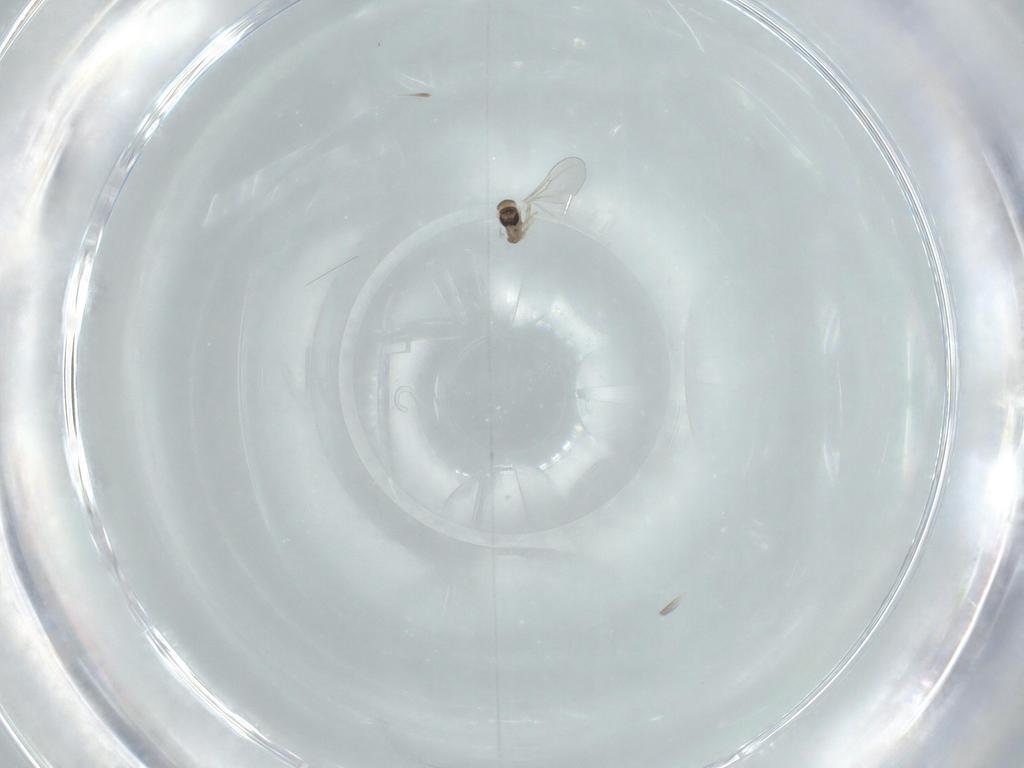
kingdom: Animalia
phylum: Arthropoda
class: Insecta
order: Diptera
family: Cecidomyiidae
